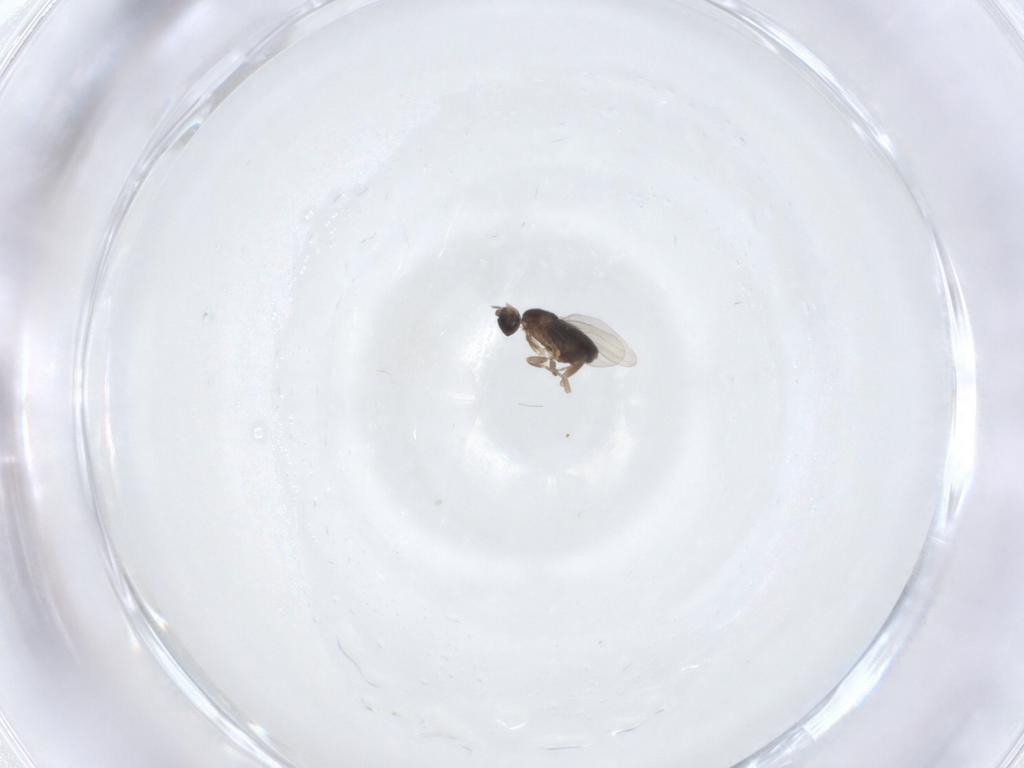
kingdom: Animalia
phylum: Arthropoda
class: Insecta
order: Diptera
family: Phoridae
